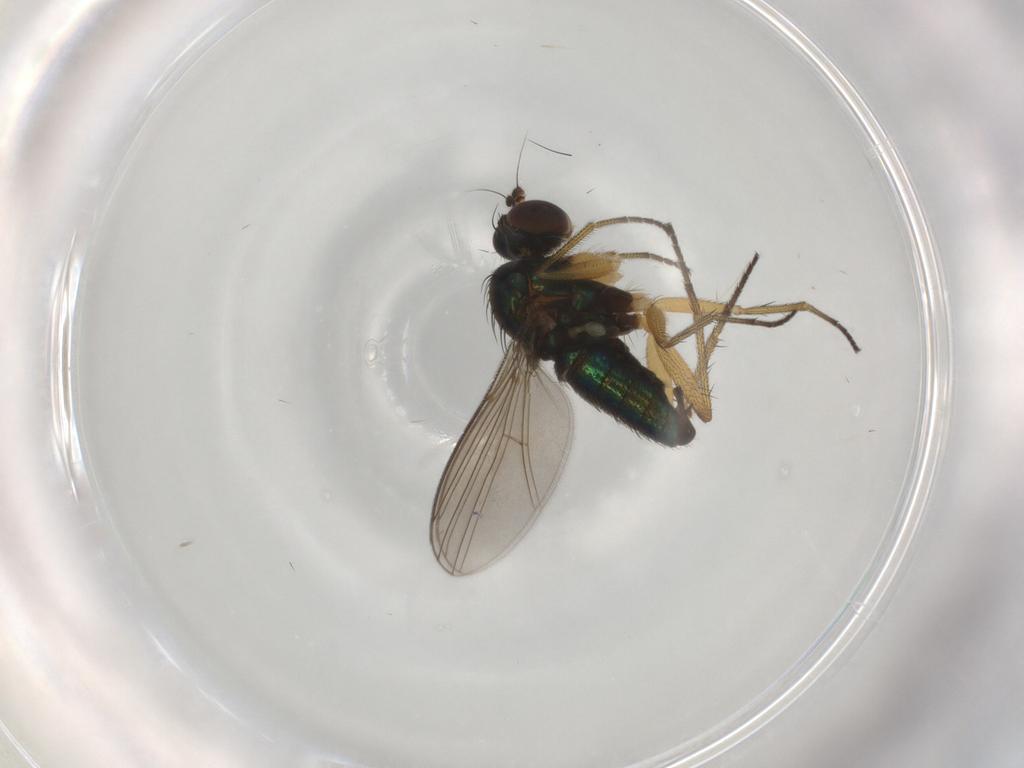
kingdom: Animalia
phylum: Arthropoda
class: Insecta
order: Diptera
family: Dolichopodidae
